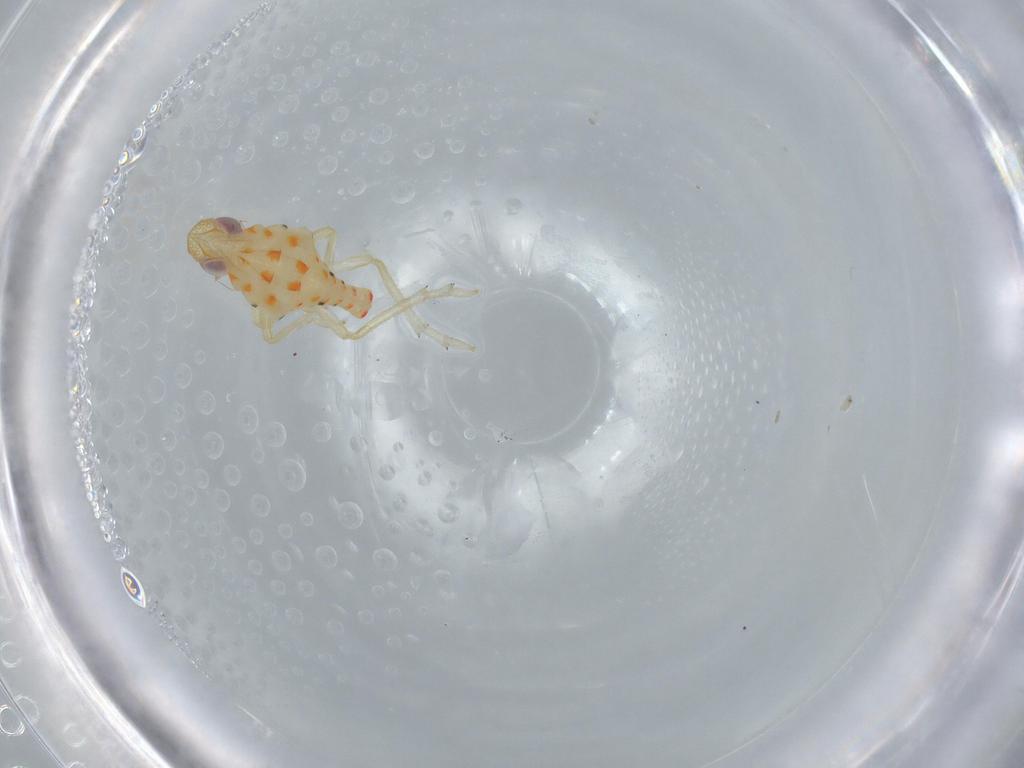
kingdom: Animalia
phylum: Arthropoda
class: Insecta
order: Hemiptera
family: Tropiduchidae
